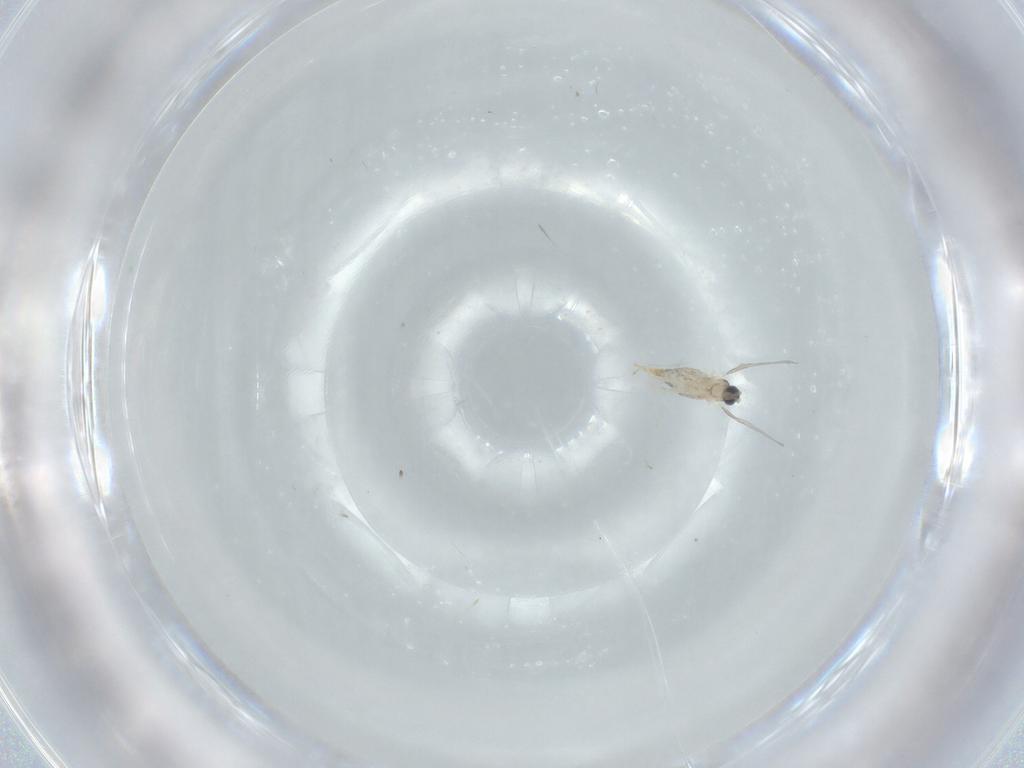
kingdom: Animalia
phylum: Arthropoda
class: Insecta
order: Diptera
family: Cecidomyiidae
